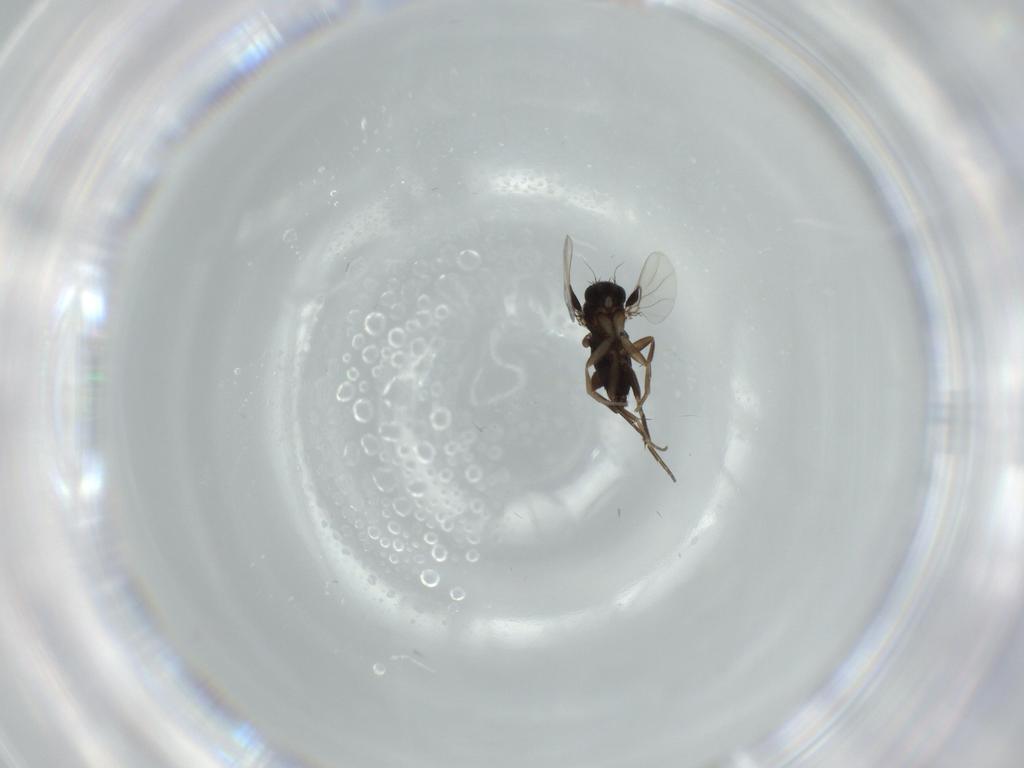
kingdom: Animalia
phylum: Arthropoda
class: Insecta
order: Diptera
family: Phoridae
